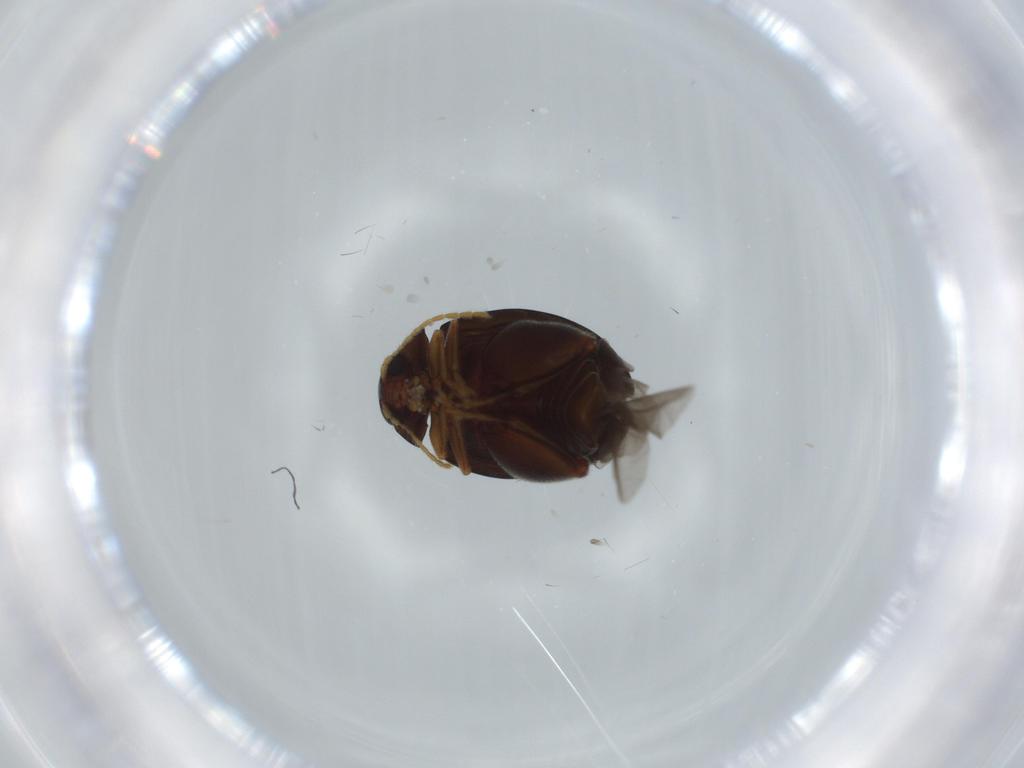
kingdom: Animalia
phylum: Arthropoda
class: Insecta
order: Coleoptera
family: Chrysomelidae
